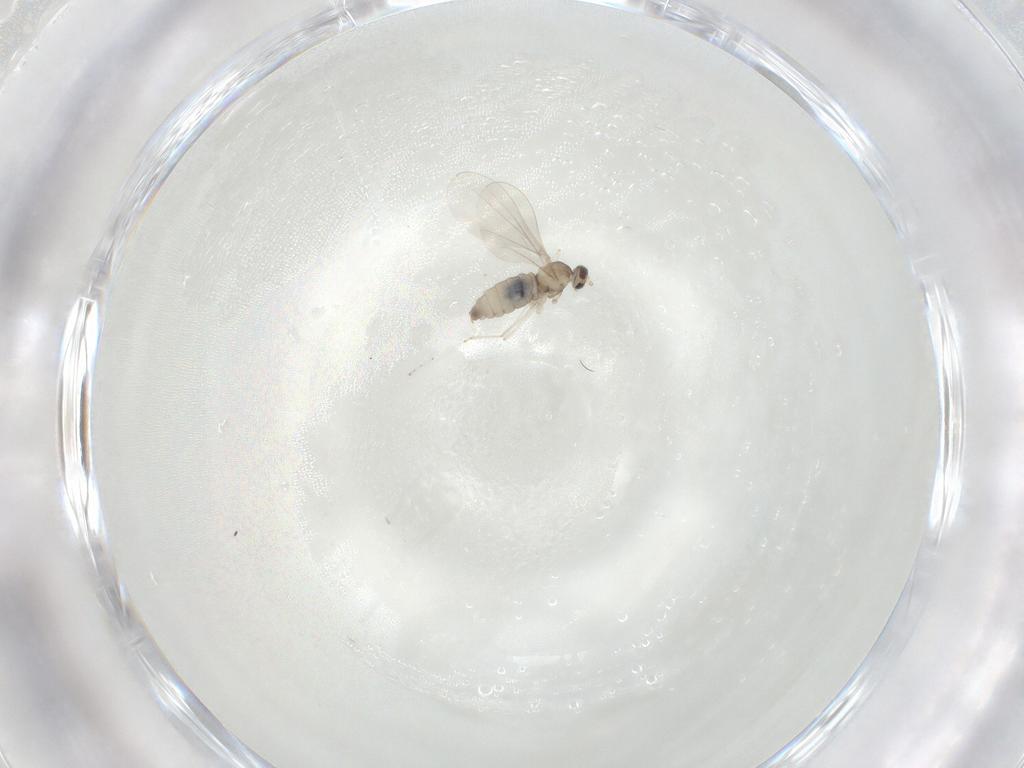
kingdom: Animalia
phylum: Arthropoda
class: Insecta
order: Diptera
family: Cecidomyiidae
